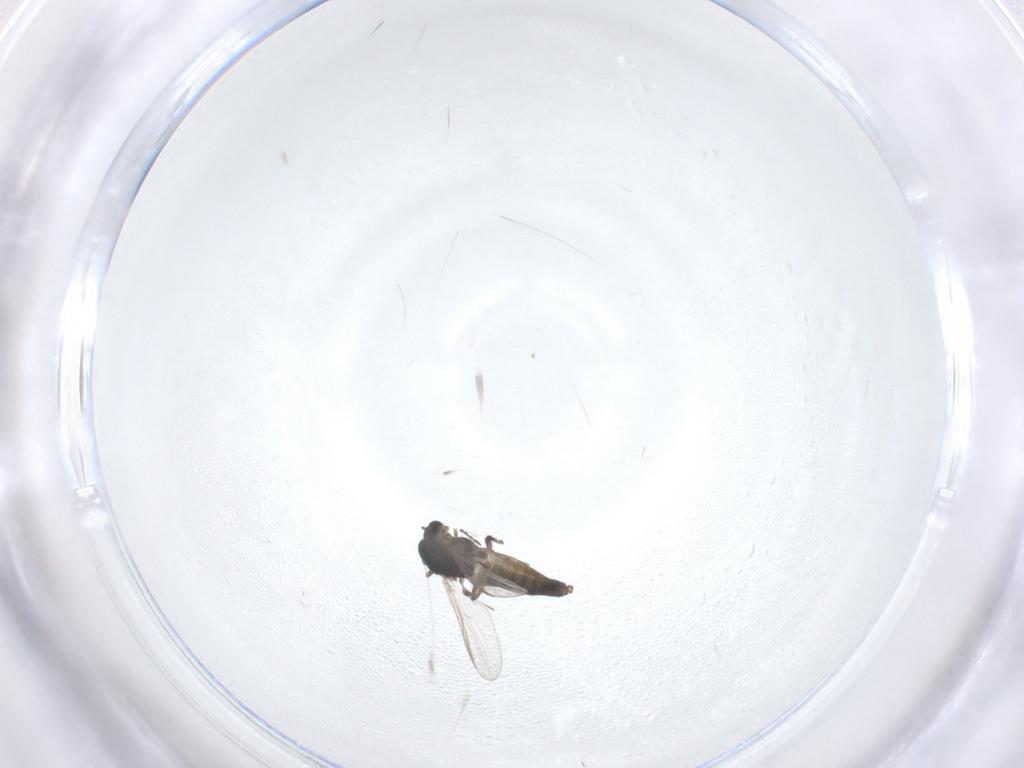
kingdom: Animalia
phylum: Arthropoda
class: Insecta
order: Diptera
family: Chironomidae
